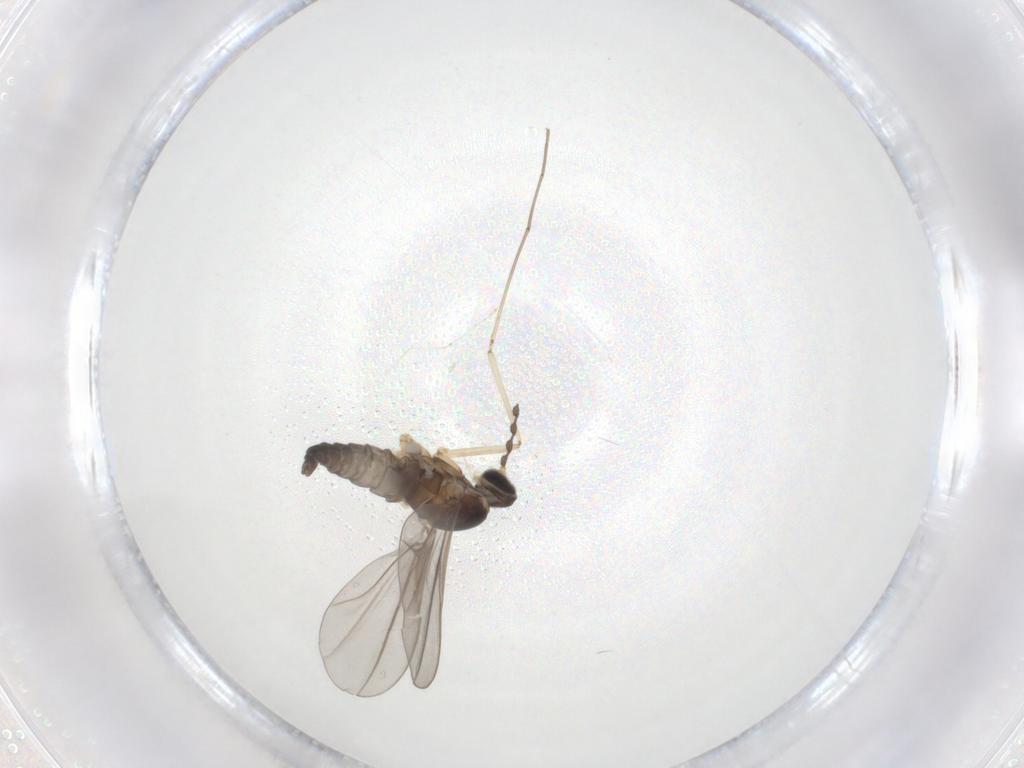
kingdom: Animalia
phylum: Arthropoda
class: Insecta
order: Diptera
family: Cecidomyiidae
